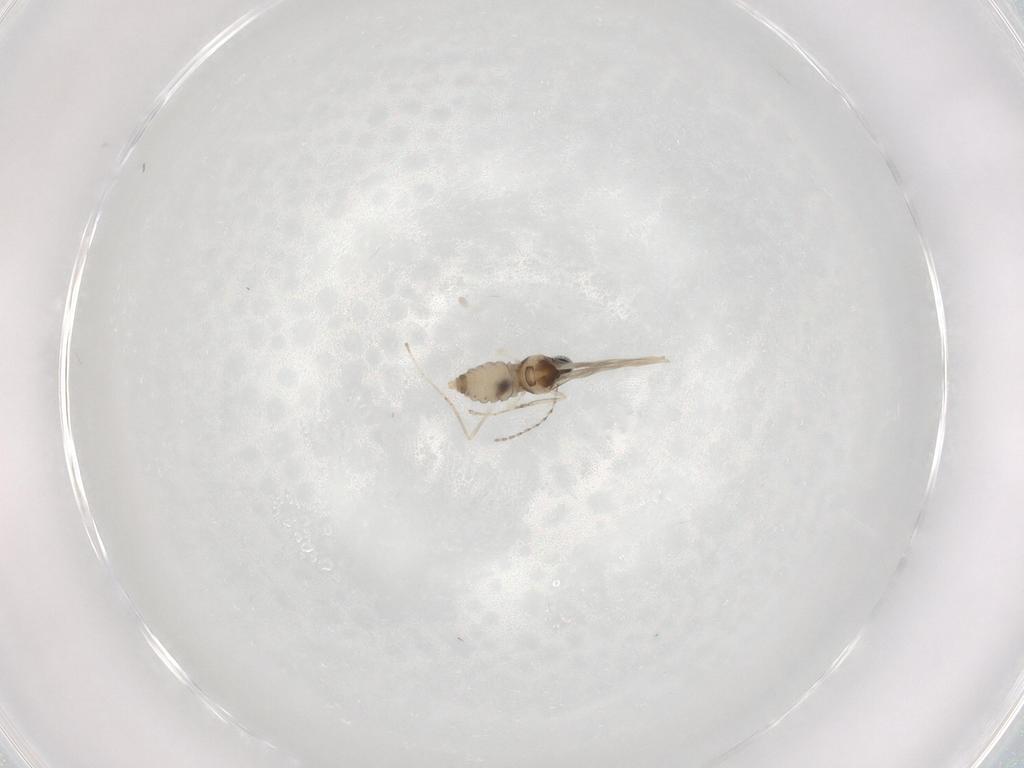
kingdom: Animalia
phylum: Arthropoda
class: Insecta
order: Diptera
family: Cecidomyiidae
